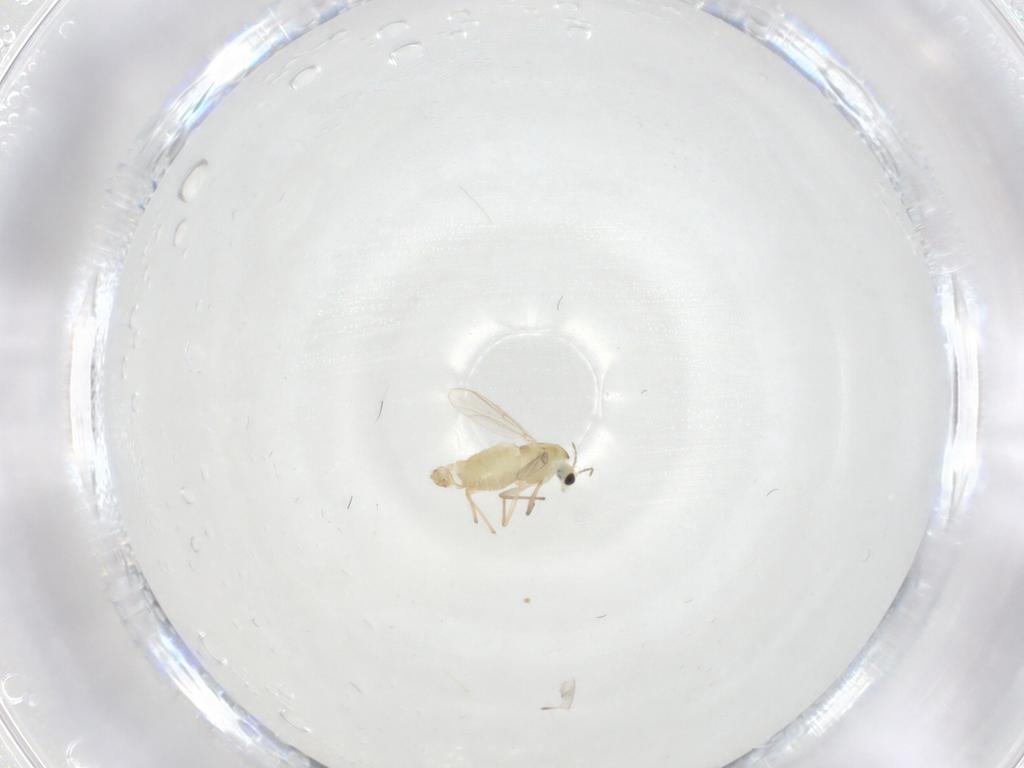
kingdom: Animalia
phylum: Arthropoda
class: Insecta
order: Diptera
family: Chironomidae
